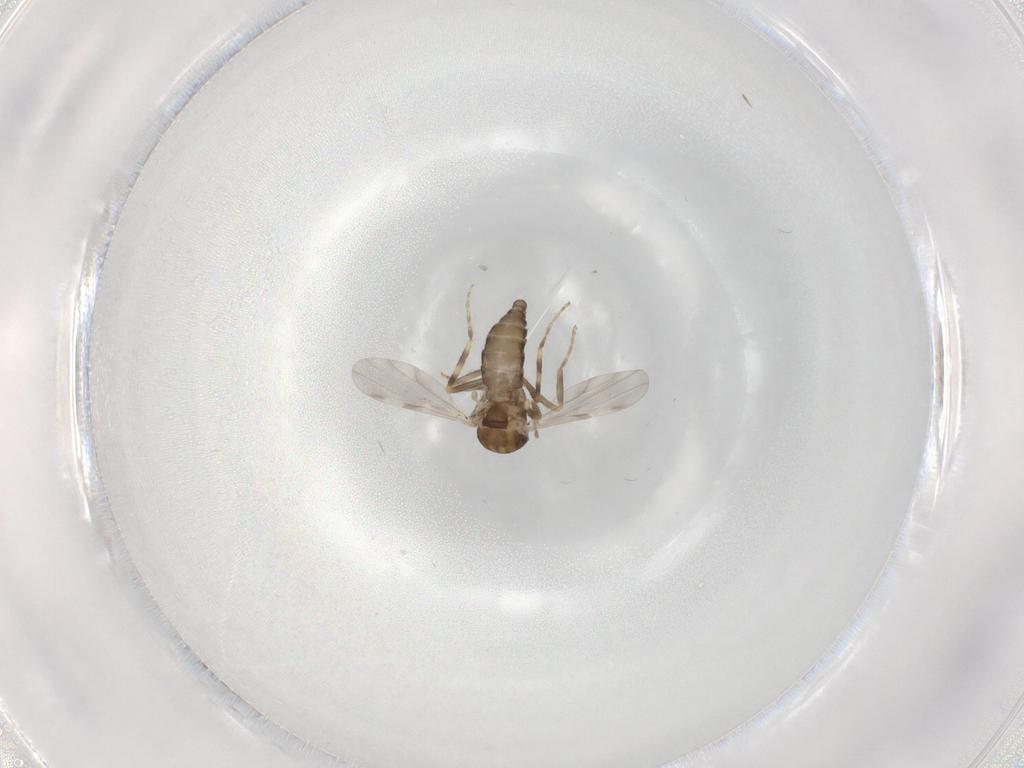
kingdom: Animalia
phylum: Arthropoda
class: Insecta
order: Diptera
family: Ceratopogonidae
